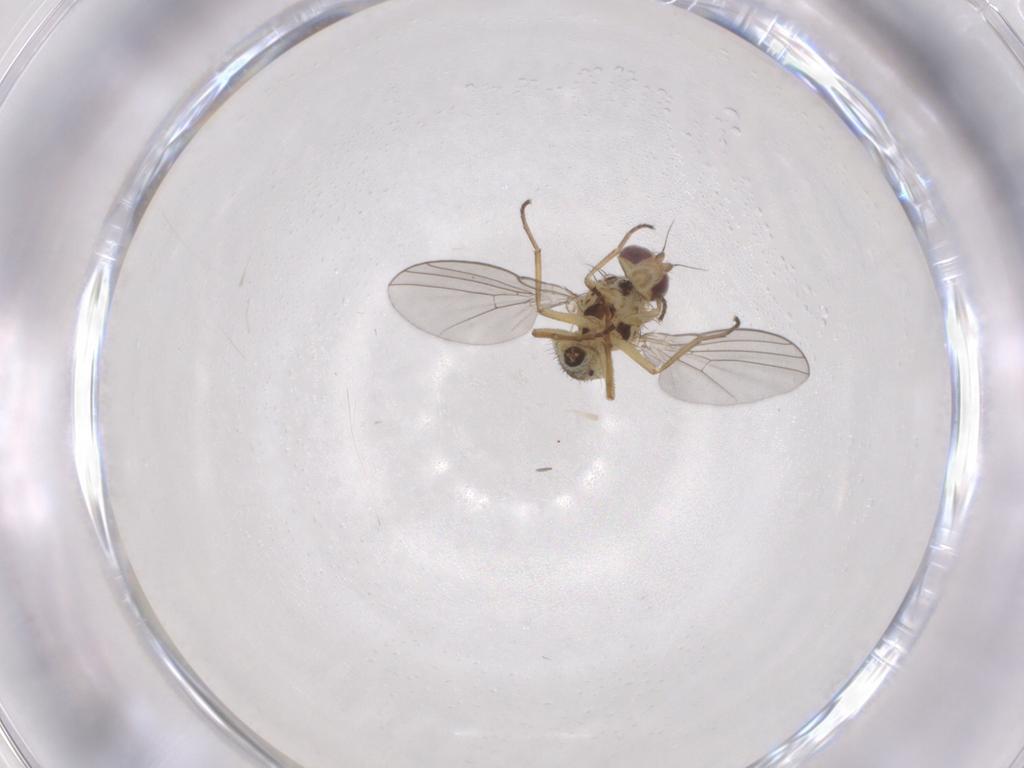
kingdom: Animalia
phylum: Arthropoda
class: Insecta
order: Diptera
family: Agromyzidae
